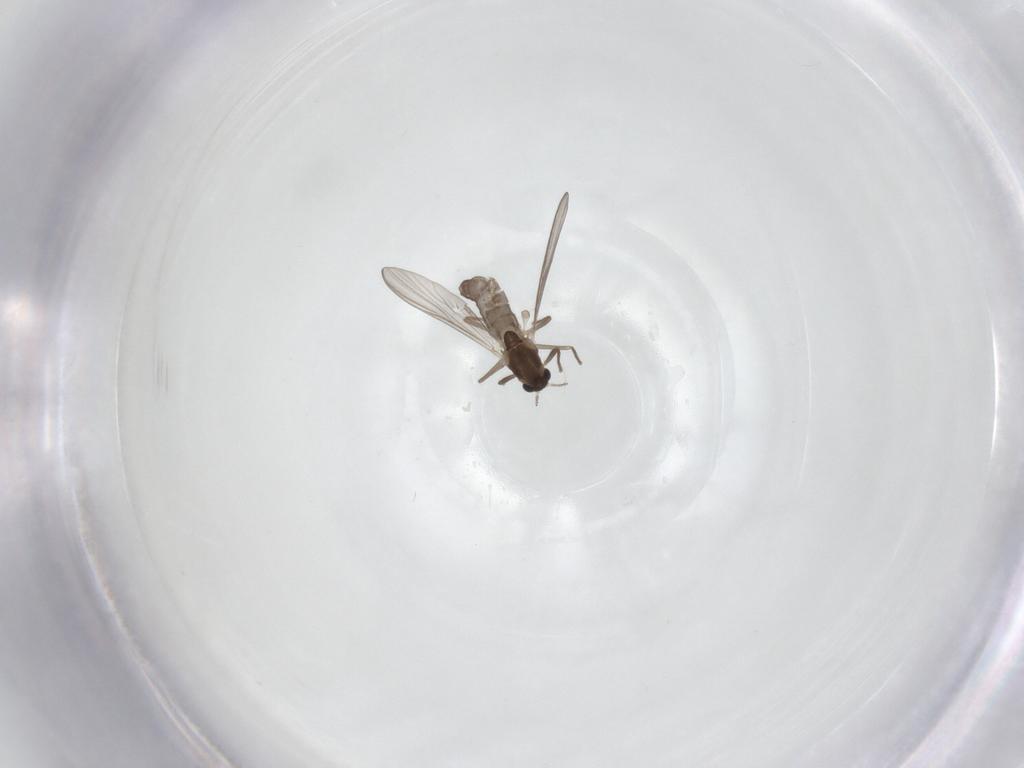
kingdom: Animalia
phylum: Arthropoda
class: Insecta
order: Diptera
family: Chironomidae
